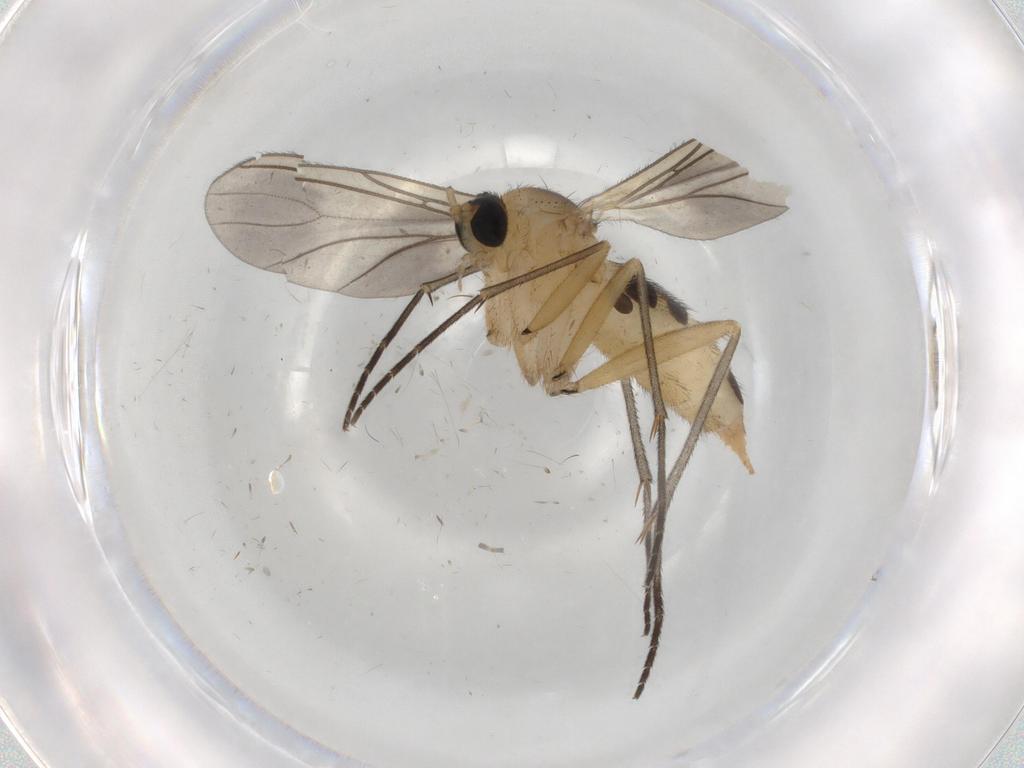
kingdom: Animalia
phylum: Arthropoda
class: Insecta
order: Diptera
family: Sciaridae
